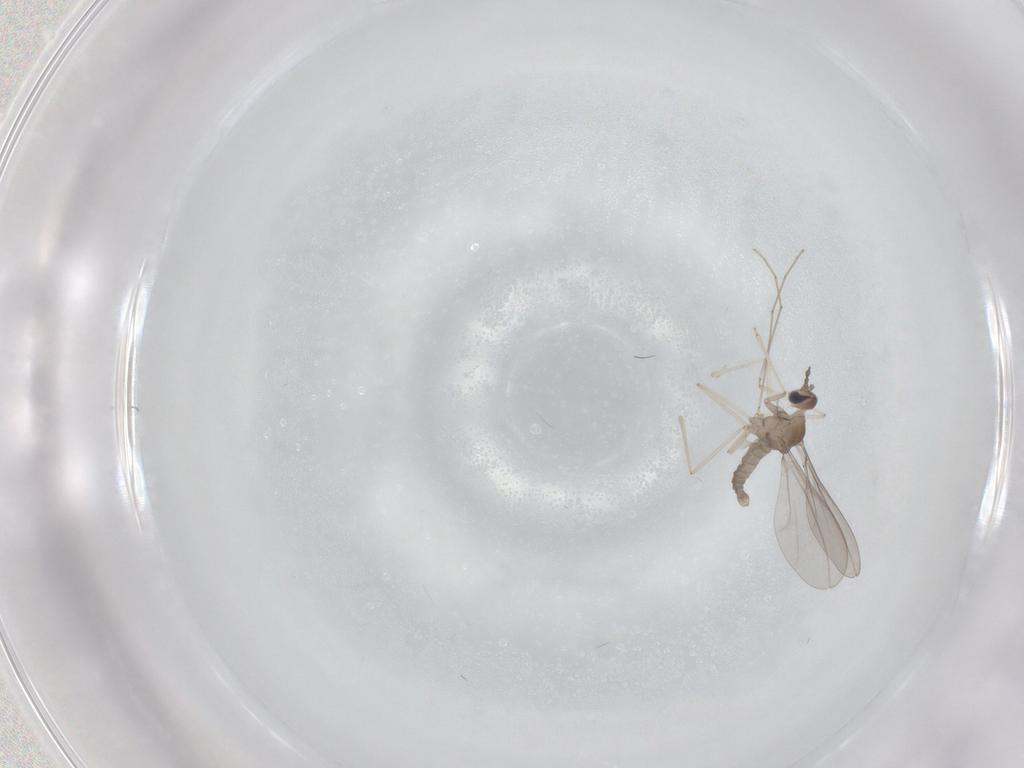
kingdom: Animalia
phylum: Arthropoda
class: Insecta
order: Diptera
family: Cecidomyiidae
